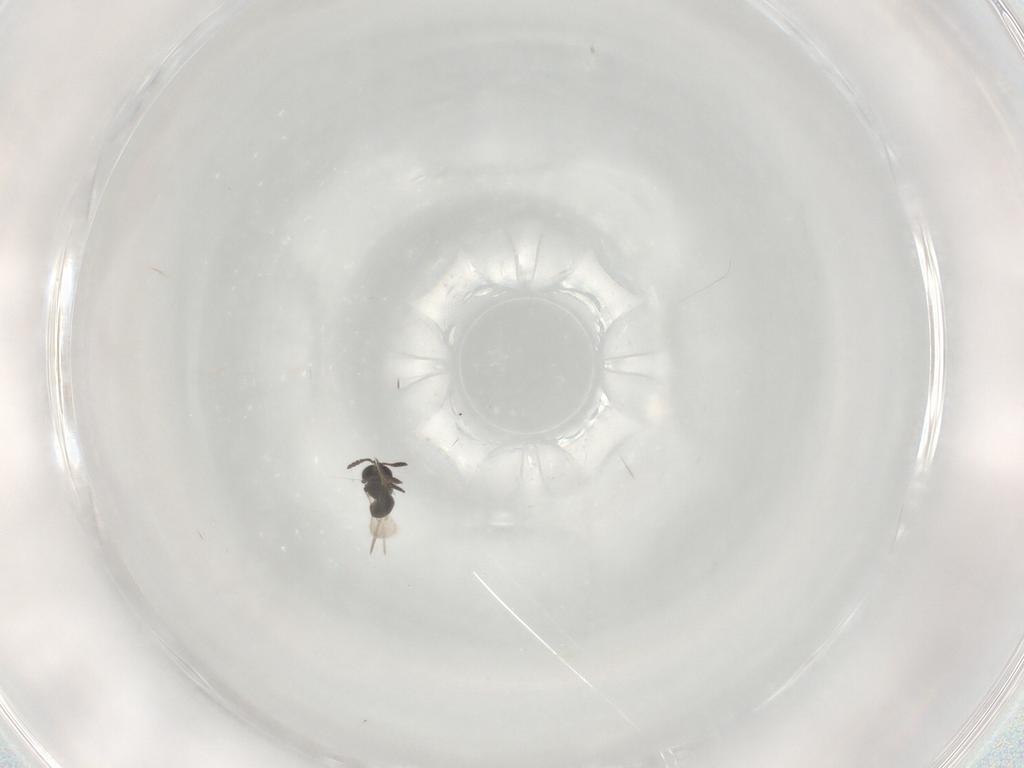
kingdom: Animalia
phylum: Arthropoda
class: Insecta
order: Hymenoptera
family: Scelionidae
